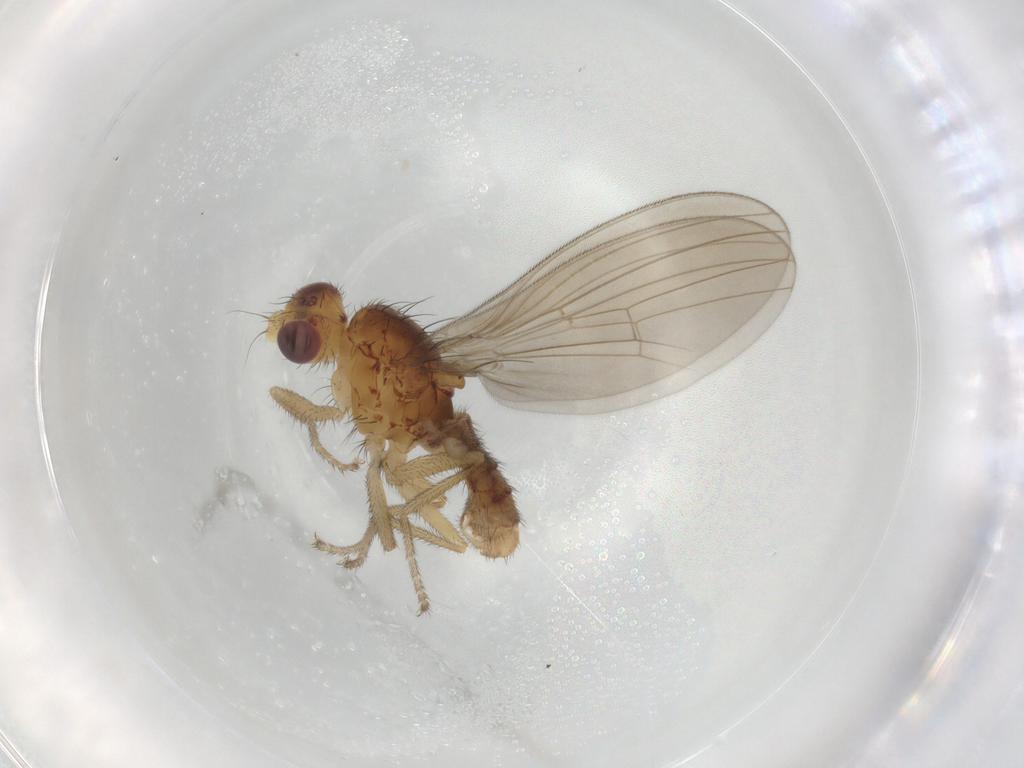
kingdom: Animalia
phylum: Arthropoda
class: Insecta
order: Diptera
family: Natalimyzidae
